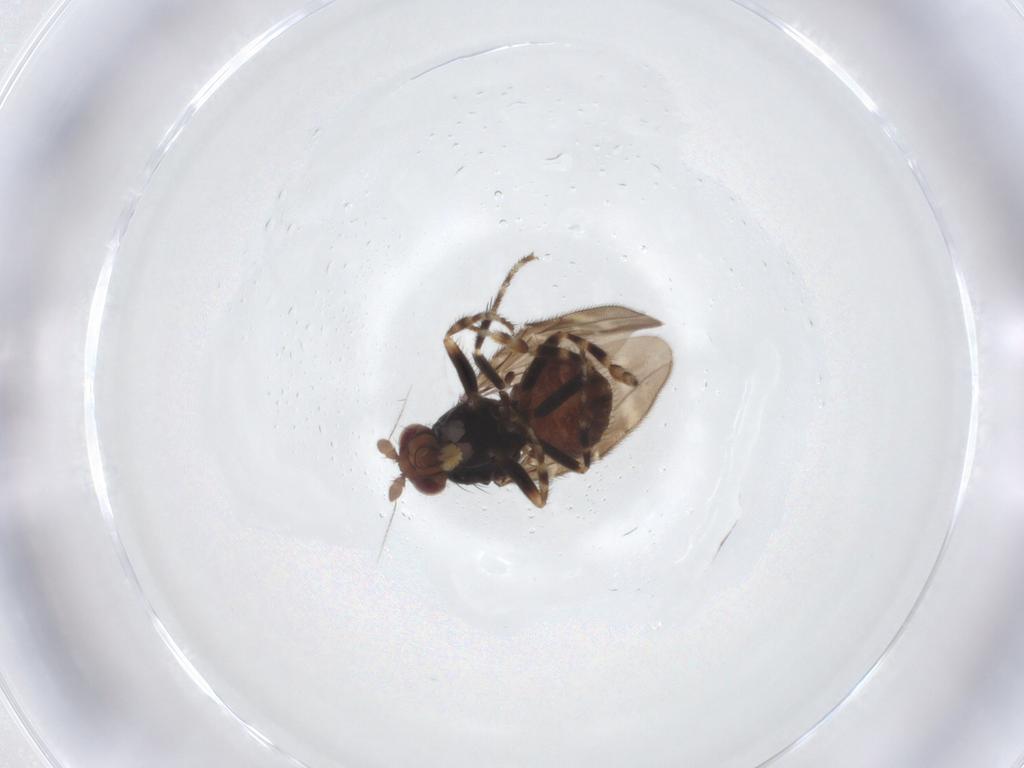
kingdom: Animalia
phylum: Arthropoda
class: Insecta
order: Diptera
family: Sphaeroceridae
